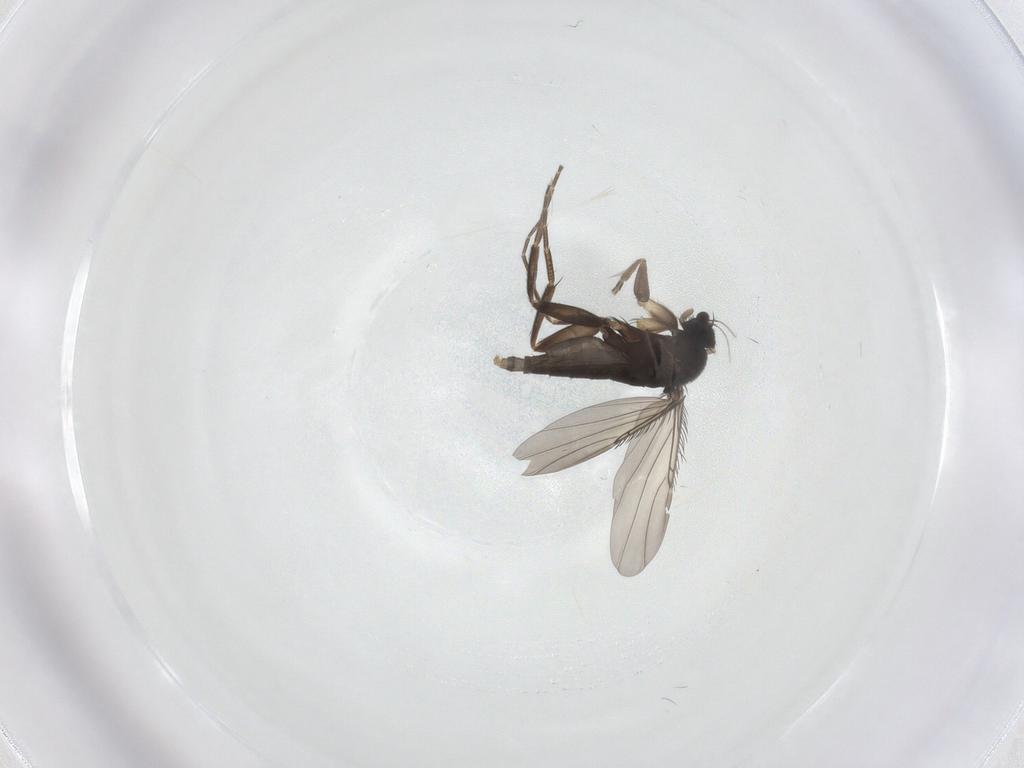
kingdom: Animalia
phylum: Arthropoda
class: Insecta
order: Diptera
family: Phoridae
